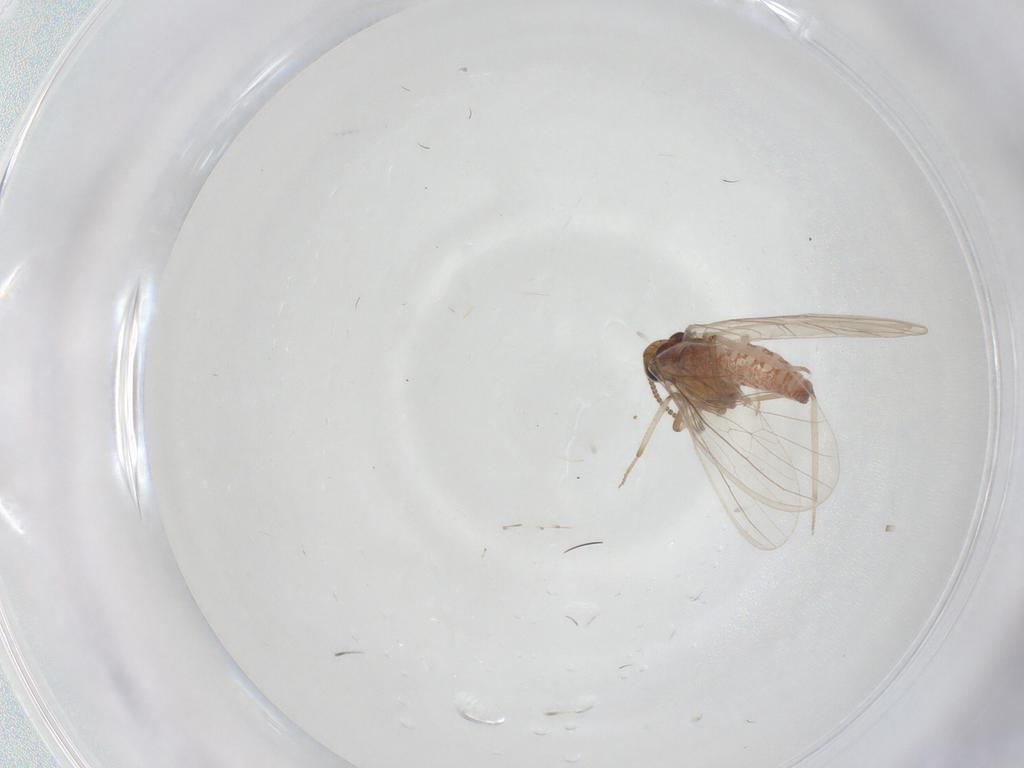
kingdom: Animalia
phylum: Arthropoda
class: Insecta
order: Neuroptera
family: Coniopterygidae
